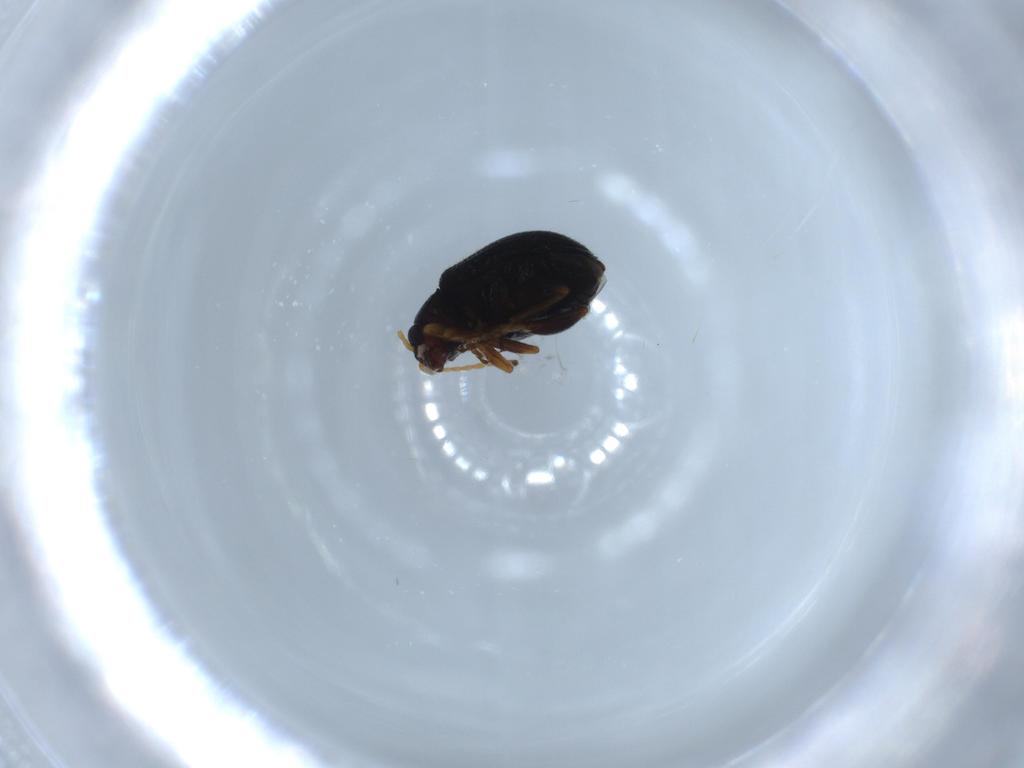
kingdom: Animalia
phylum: Arthropoda
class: Insecta
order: Coleoptera
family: Chrysomelidae
